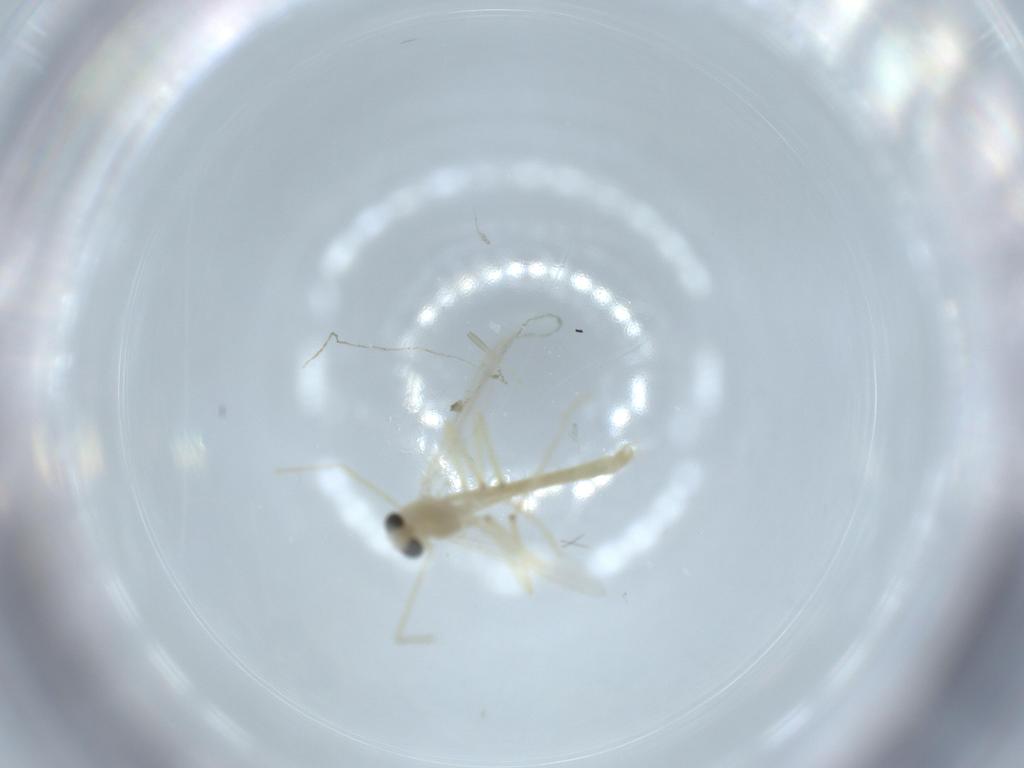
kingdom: Animalia
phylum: Arthropoda
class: Insecta
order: Diptera
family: Chironomidae
